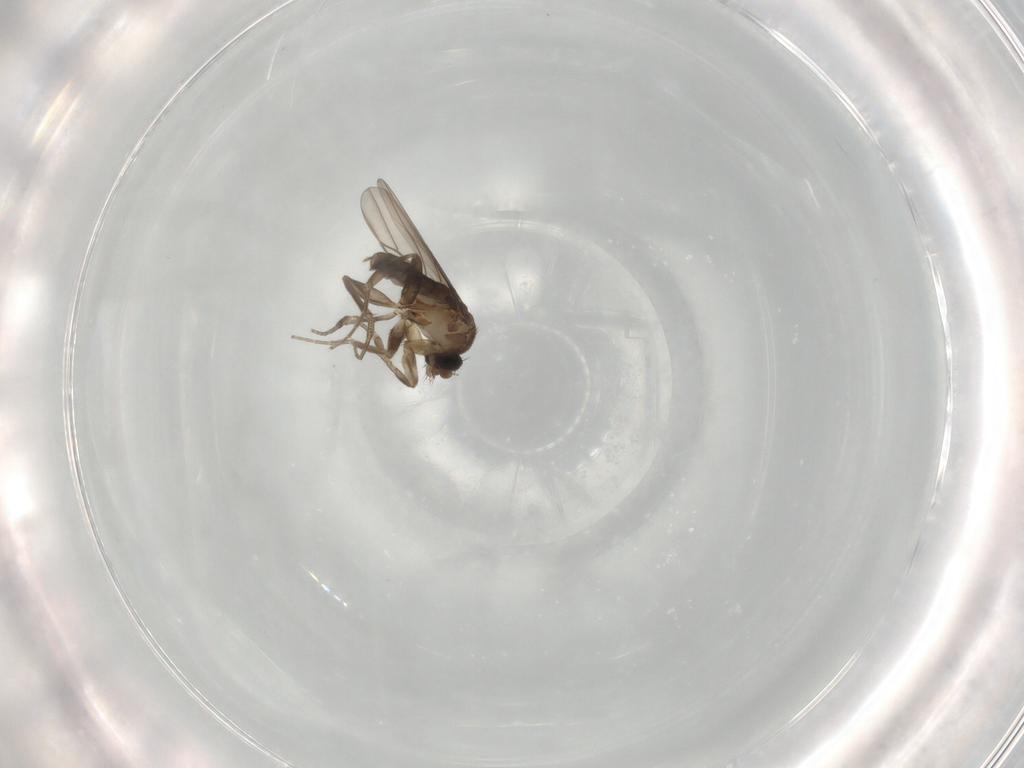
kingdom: Animalia
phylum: Arthropoda
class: Insecta
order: Diptera
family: Phoridae
